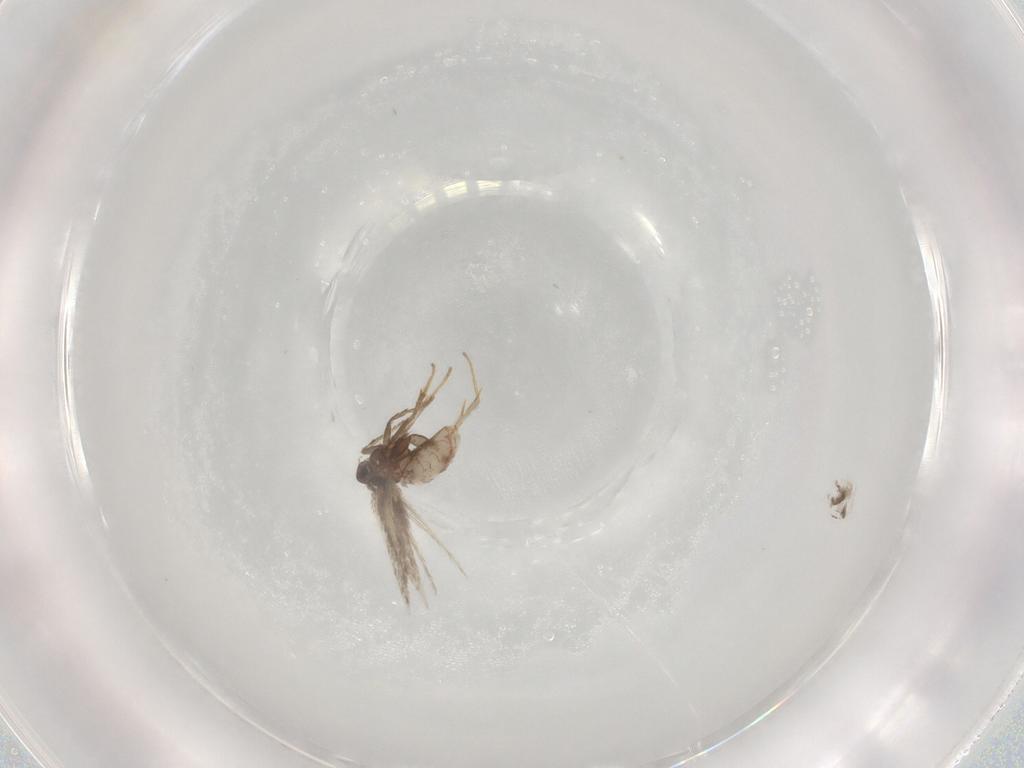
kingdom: Animalia
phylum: Arthropoda
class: Insecta
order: Lepidoptera
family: Nepticulidae
